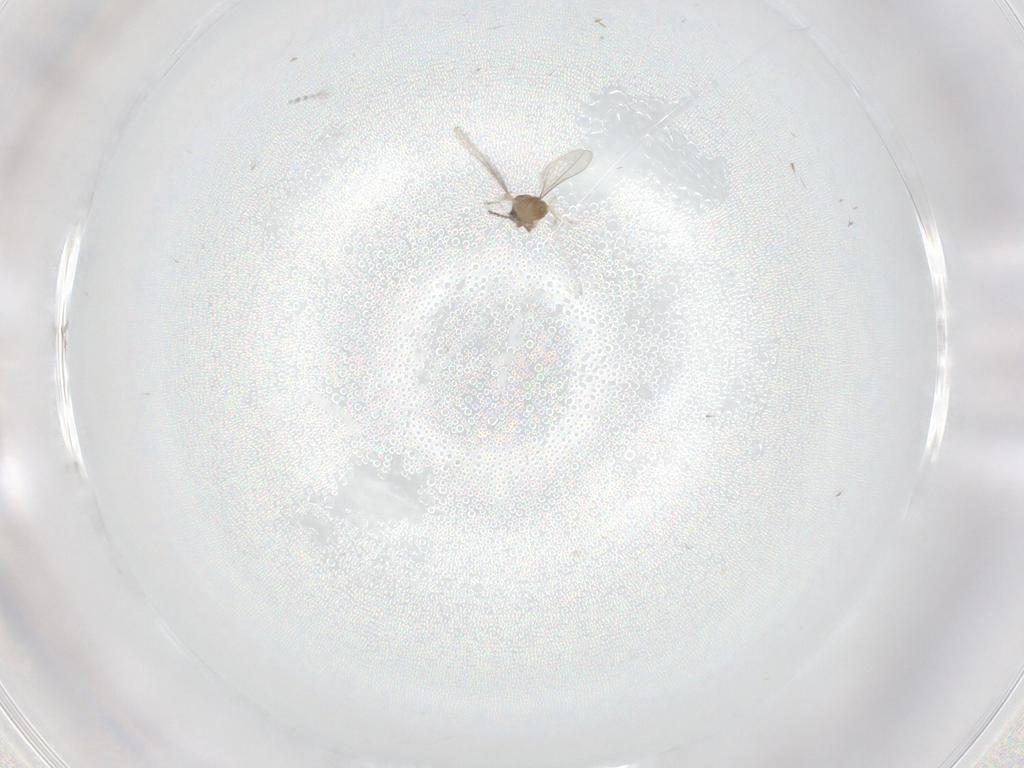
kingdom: Animalia
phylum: Arthropoda
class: Insecta
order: Diptera
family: Cecidomyiidae
